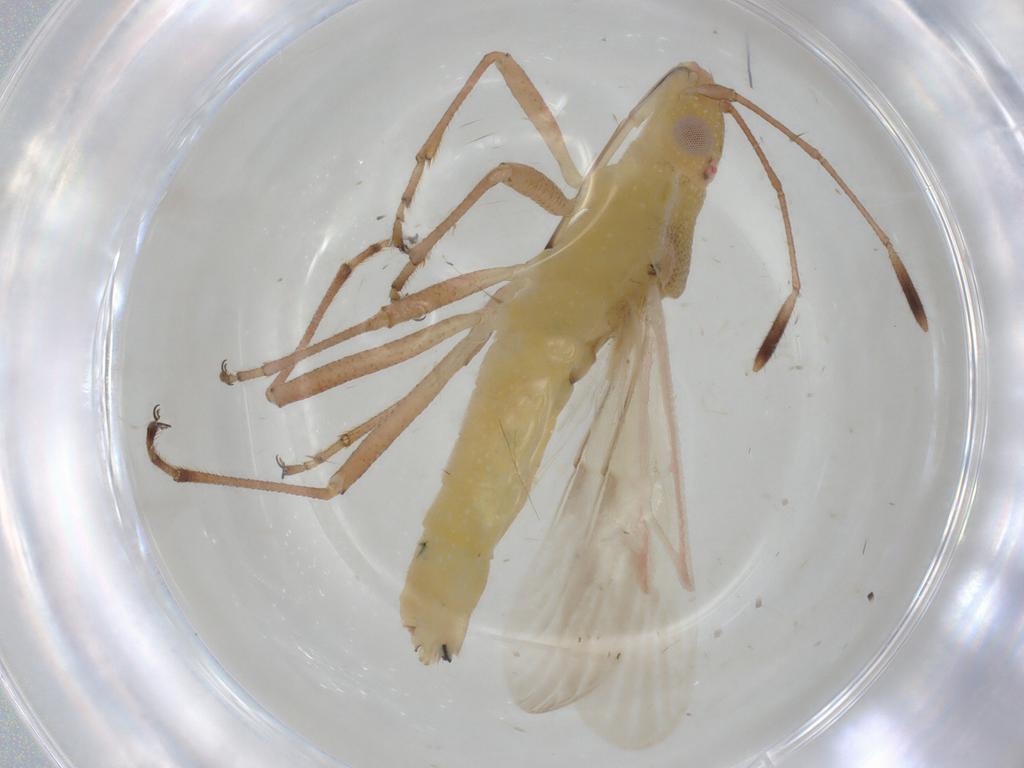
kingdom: Animalia
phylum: Arthropoda
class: Insecta
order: Hemiptera
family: Rhopalidae
